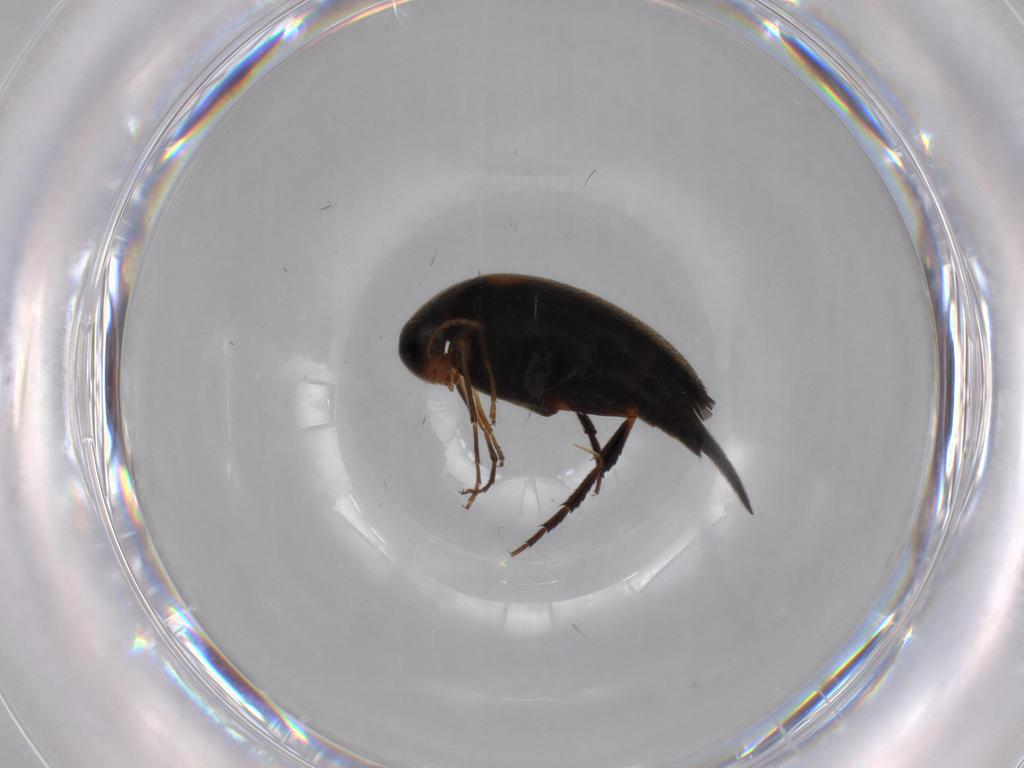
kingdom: Animalia
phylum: Arthropoda
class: Insecta
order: Coleoptera
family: Mordellidae
